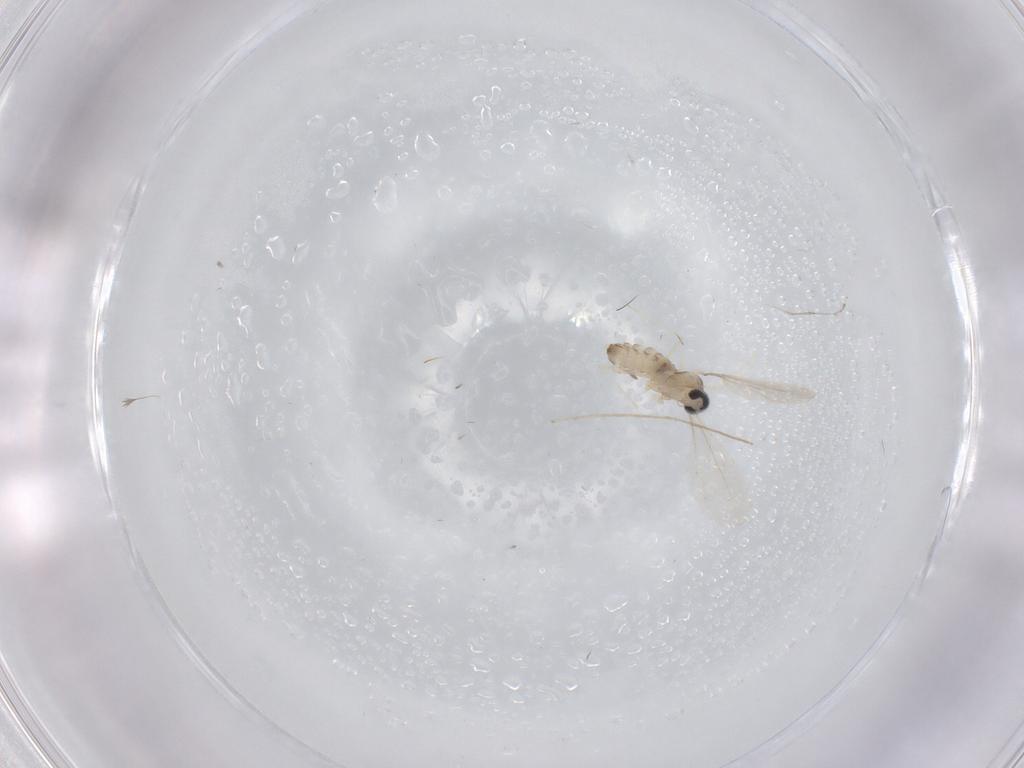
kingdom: Animalia
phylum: Arthropoda
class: Insecta
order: Diptera
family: Cecidomyiidae
